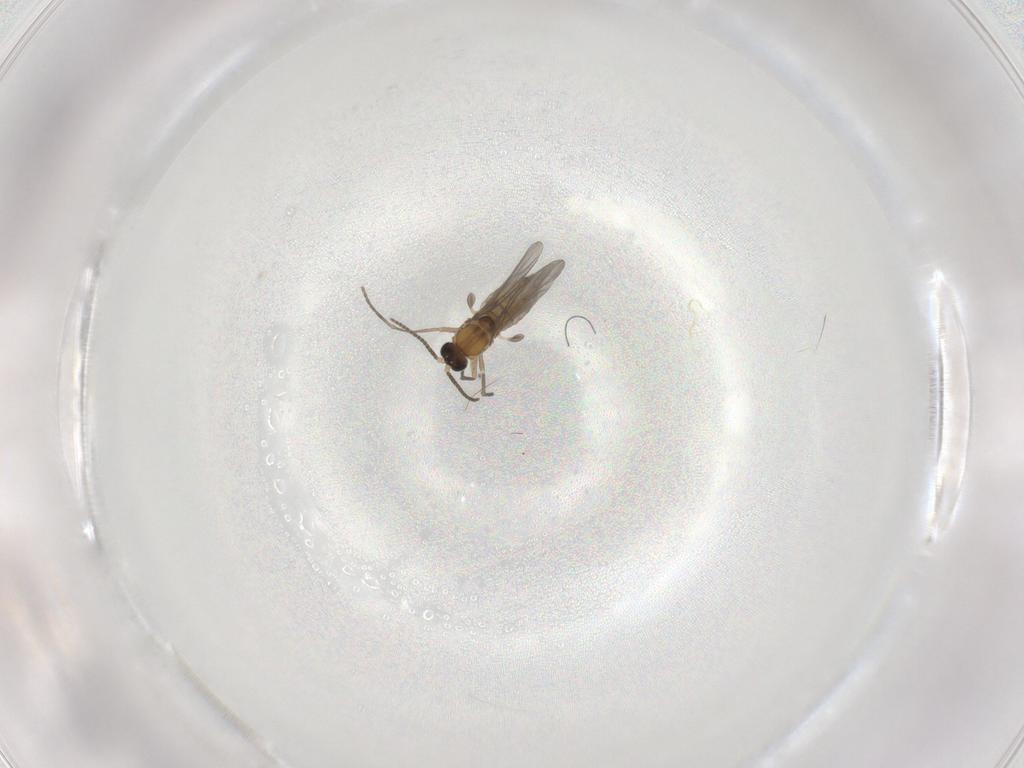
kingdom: Animalia
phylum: Arthropoda
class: Insecta
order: Diptera
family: Sciaridae
